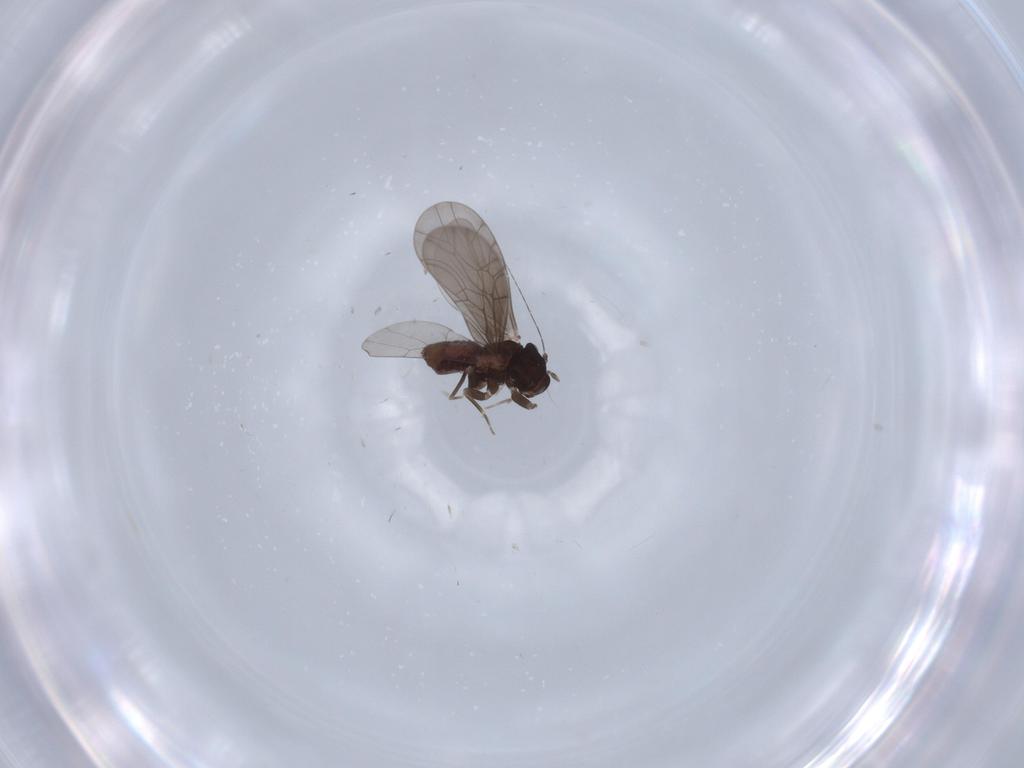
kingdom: Animalia
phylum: Arthropoda
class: Insecta
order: Psocodea
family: Lepidopsocidae
